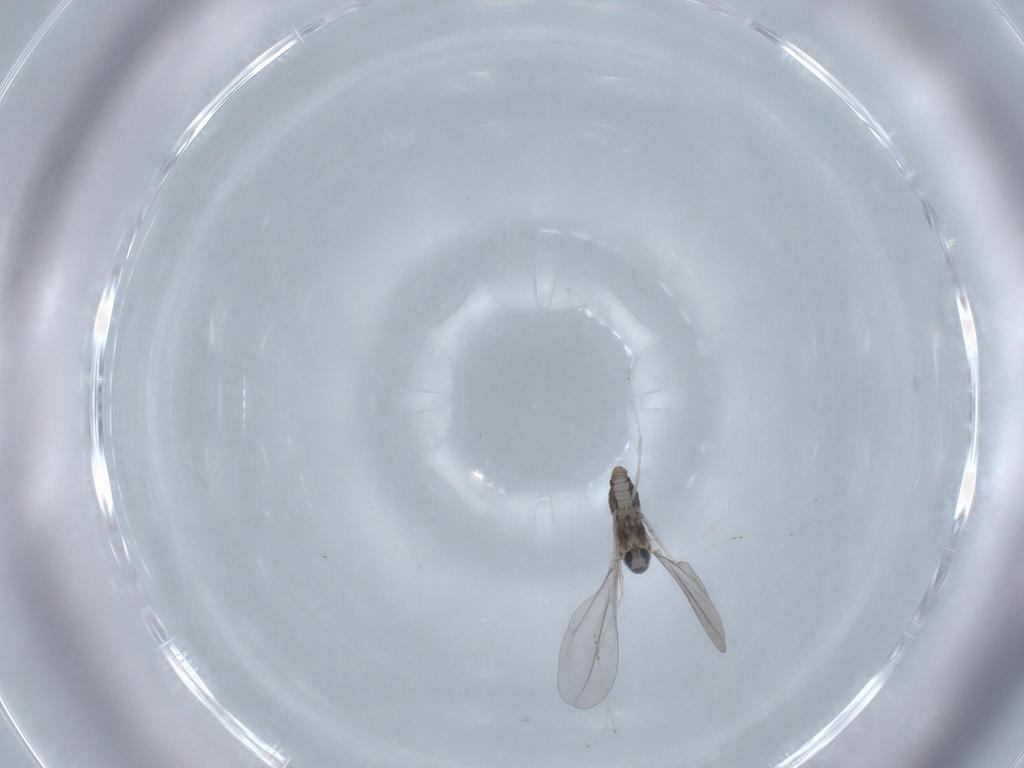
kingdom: Animalia
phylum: Arthropoda
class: Insecta
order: Diptera
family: Cecidomyiidae
